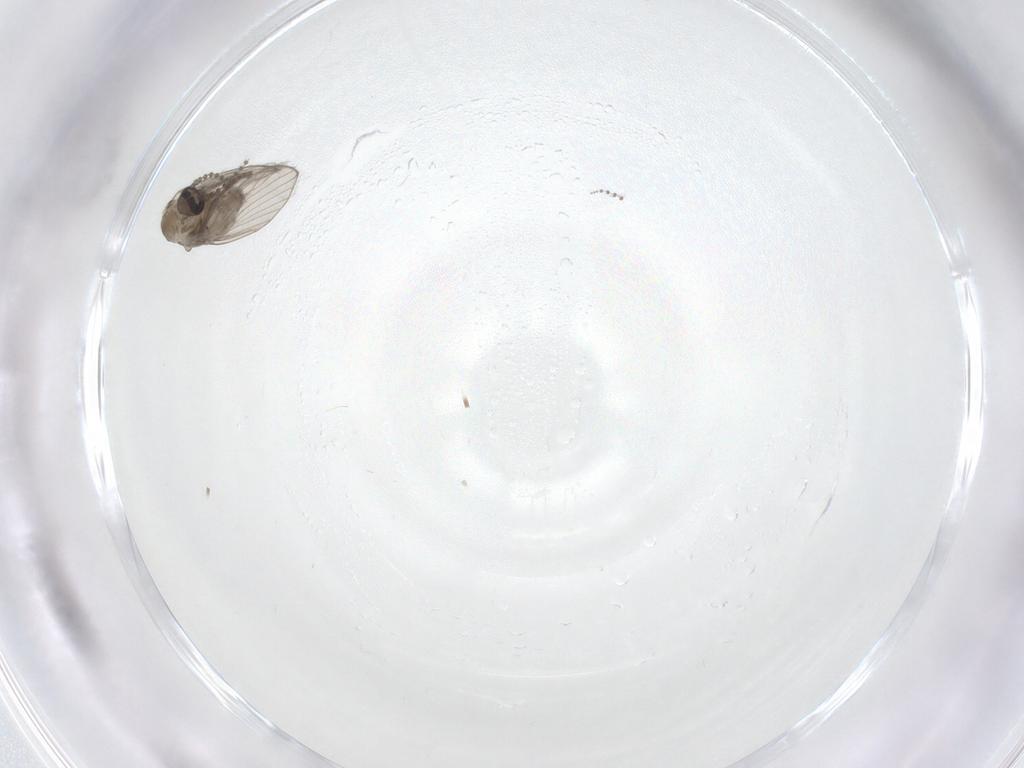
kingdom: Animalia
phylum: Arthropoda
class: Insecta
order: Diptera
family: Psychodidae
